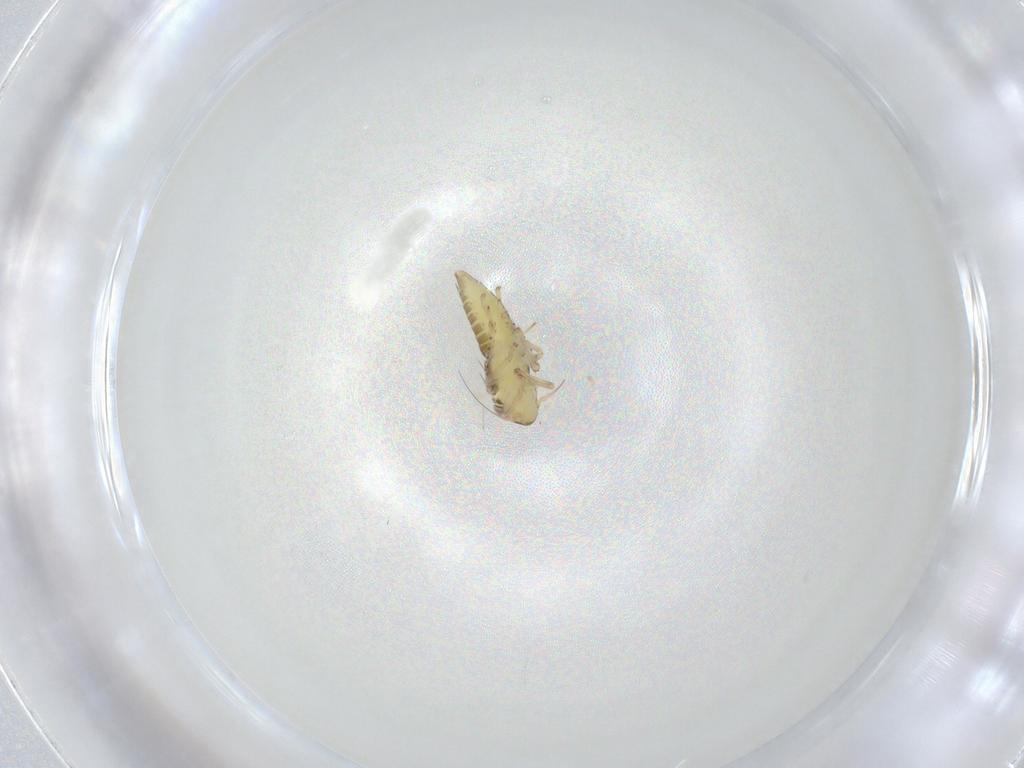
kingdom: Animalia
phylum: Arthropoda
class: Insecta
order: Hemiptera
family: Cicadellidae
